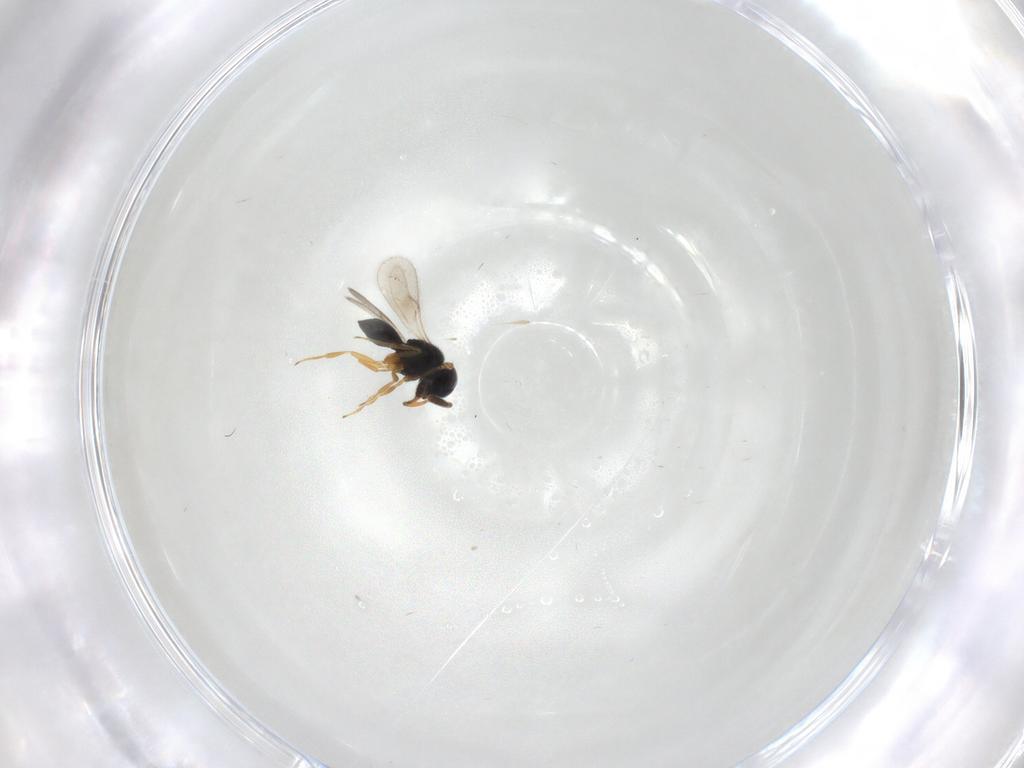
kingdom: Animalia
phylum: Arthropoda
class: Insecta
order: Hymenoptera
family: Scelionidae
